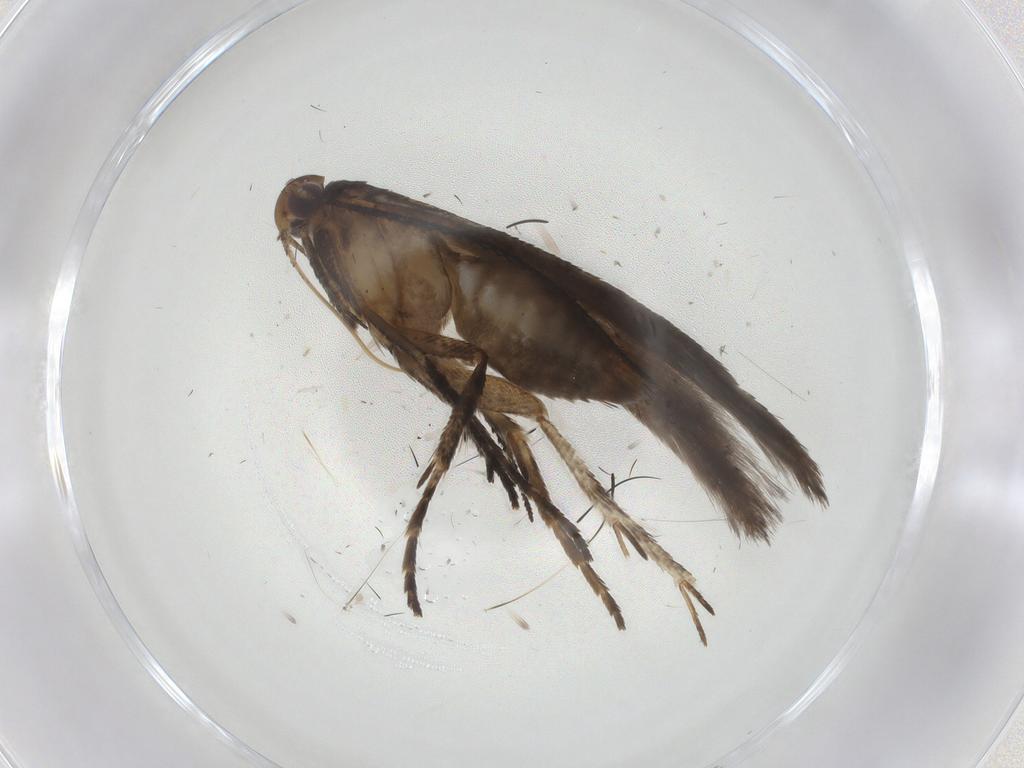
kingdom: Animalia
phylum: Arthropoda
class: Insecta
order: Lepidoptera
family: Gelechiidae
